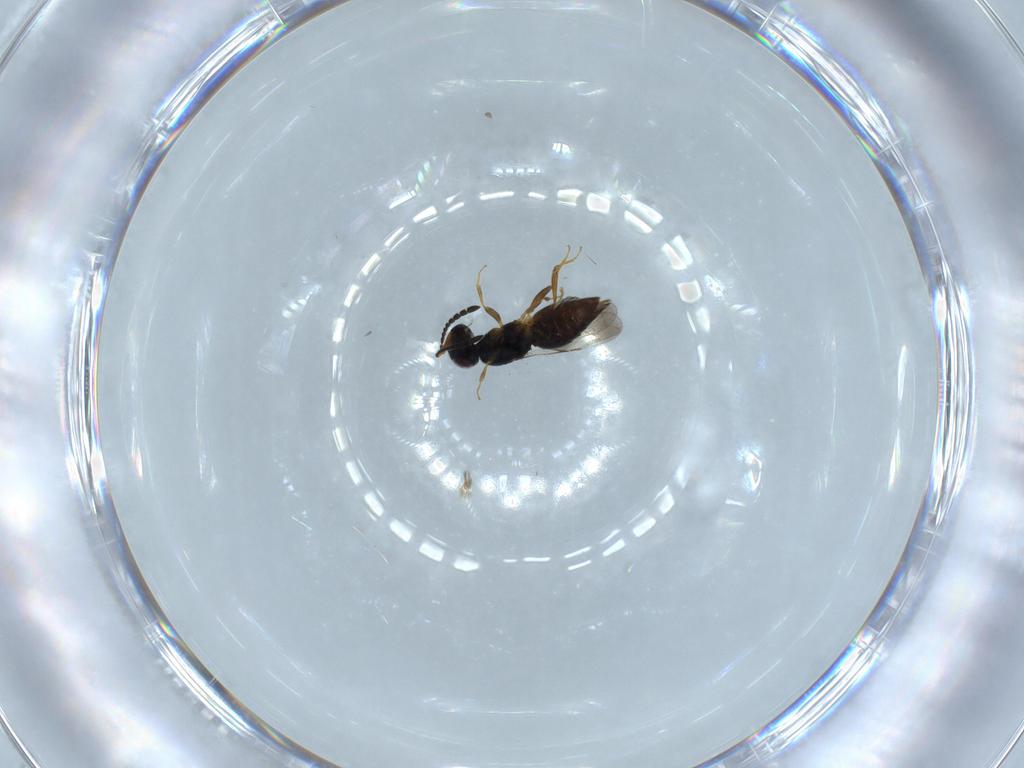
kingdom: Animalia
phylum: Arthropoda
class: Insecta
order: Hymenoptera
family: Ceraphronidae
